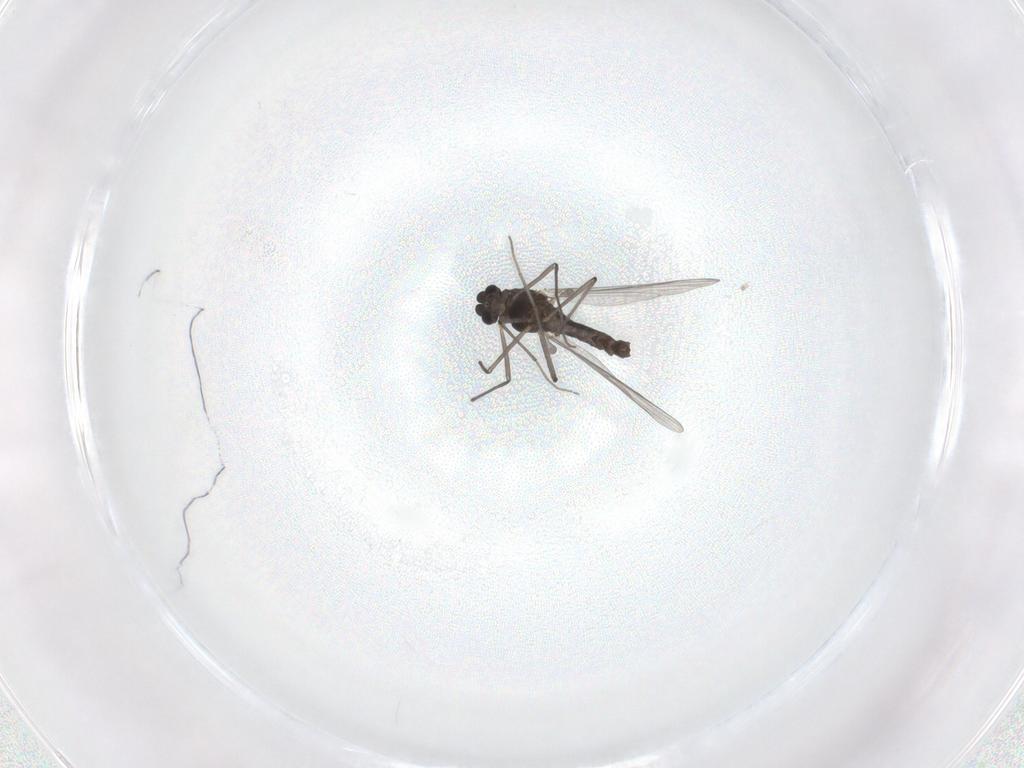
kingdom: Animalia
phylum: Arthropoda
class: Insecta
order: Diptera
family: Chironomidae
